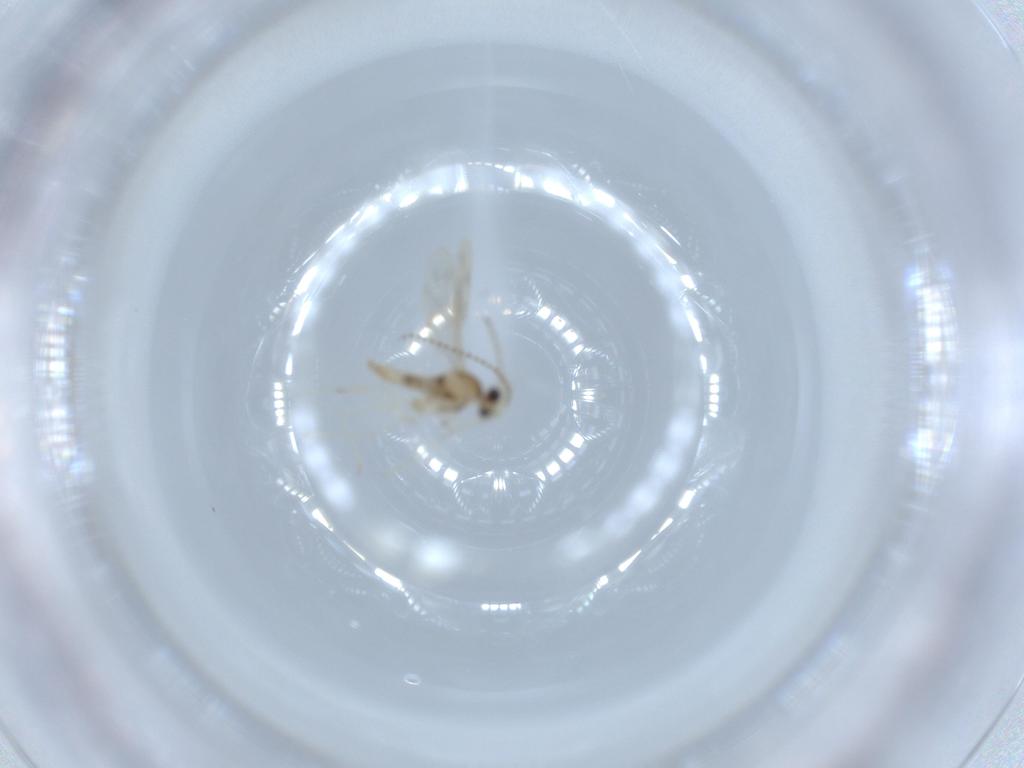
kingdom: Animalia
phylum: Arthropoda
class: Insecta
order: Diptera
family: Cecidomyiidae
